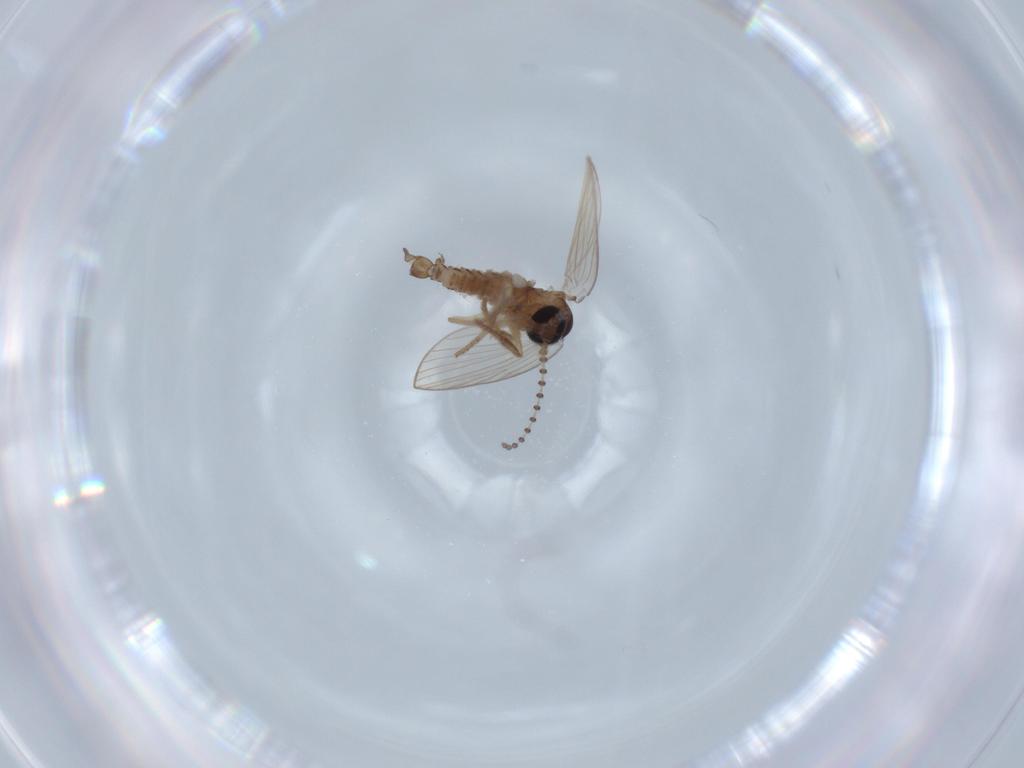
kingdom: Animalia
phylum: Arthropoda
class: Insecta
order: Diptera
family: Psychodidae
